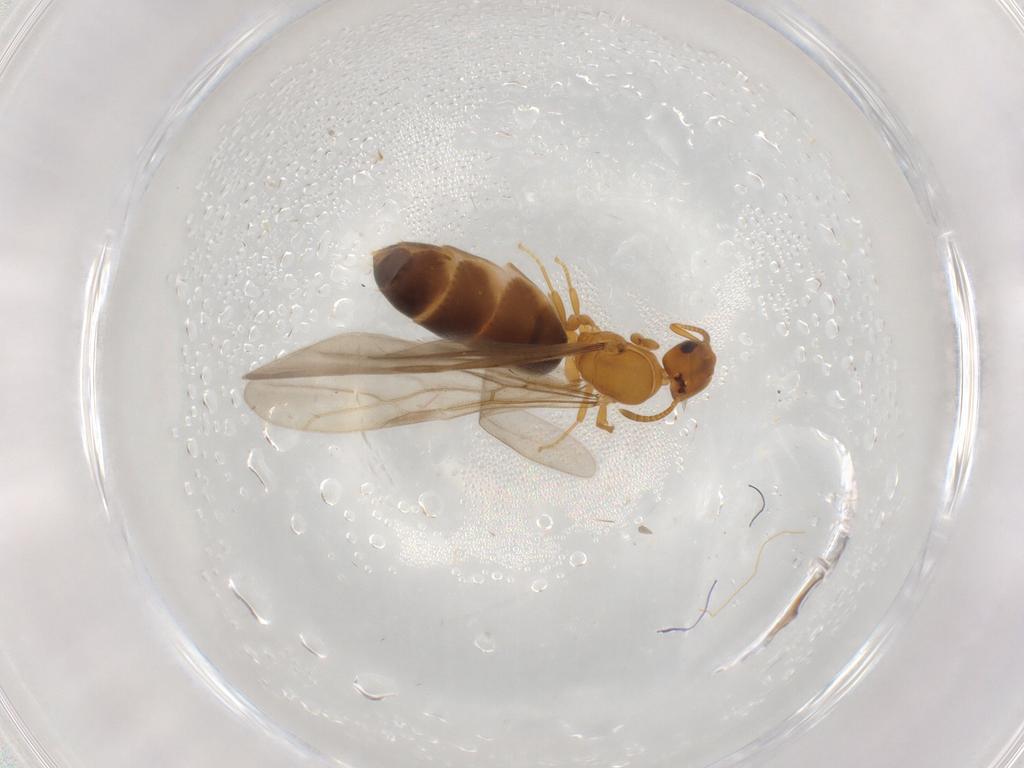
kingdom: Animalia
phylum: Arthropoda
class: Insecta
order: Hymenoptera
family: Formicidae
